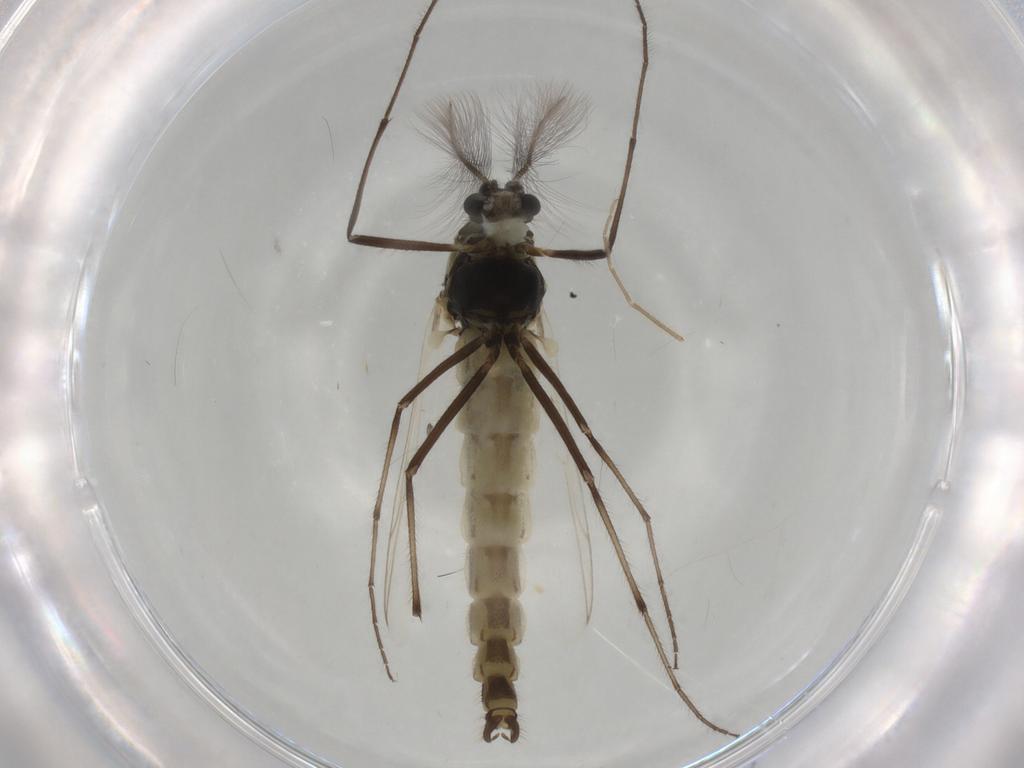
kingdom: Animalia
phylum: Arthropoda
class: Insecta
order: Diptera
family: Chironomidae
